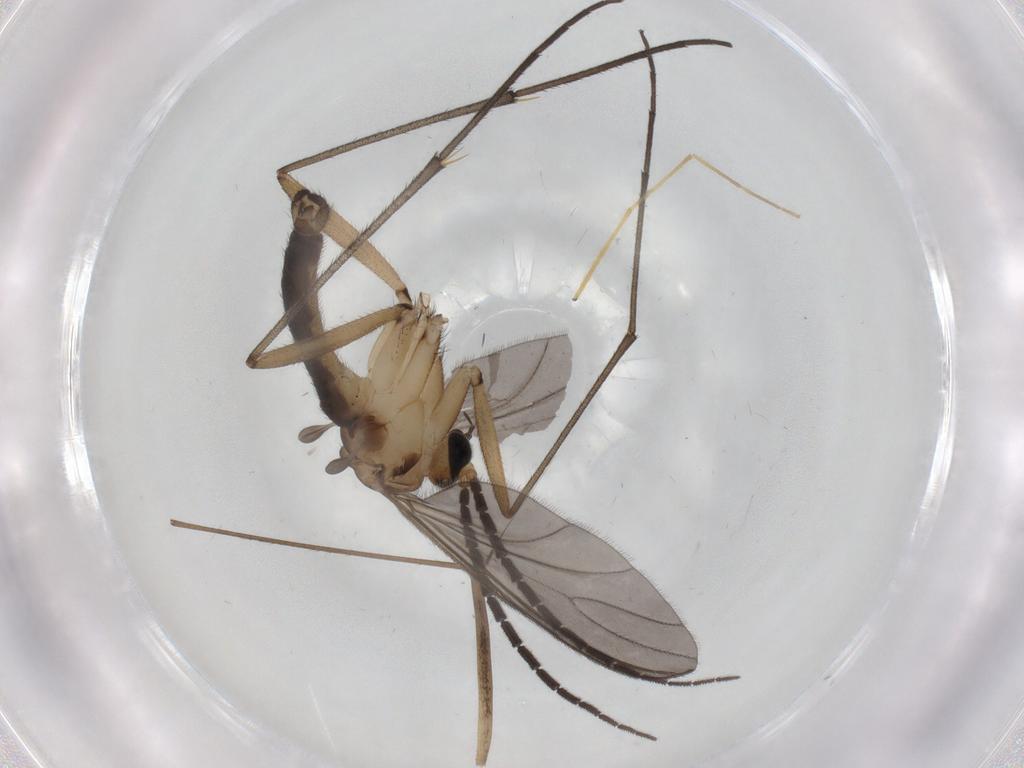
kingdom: Animalia
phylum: Arthropoda
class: Insecta
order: Diptera
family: Limoniidae
